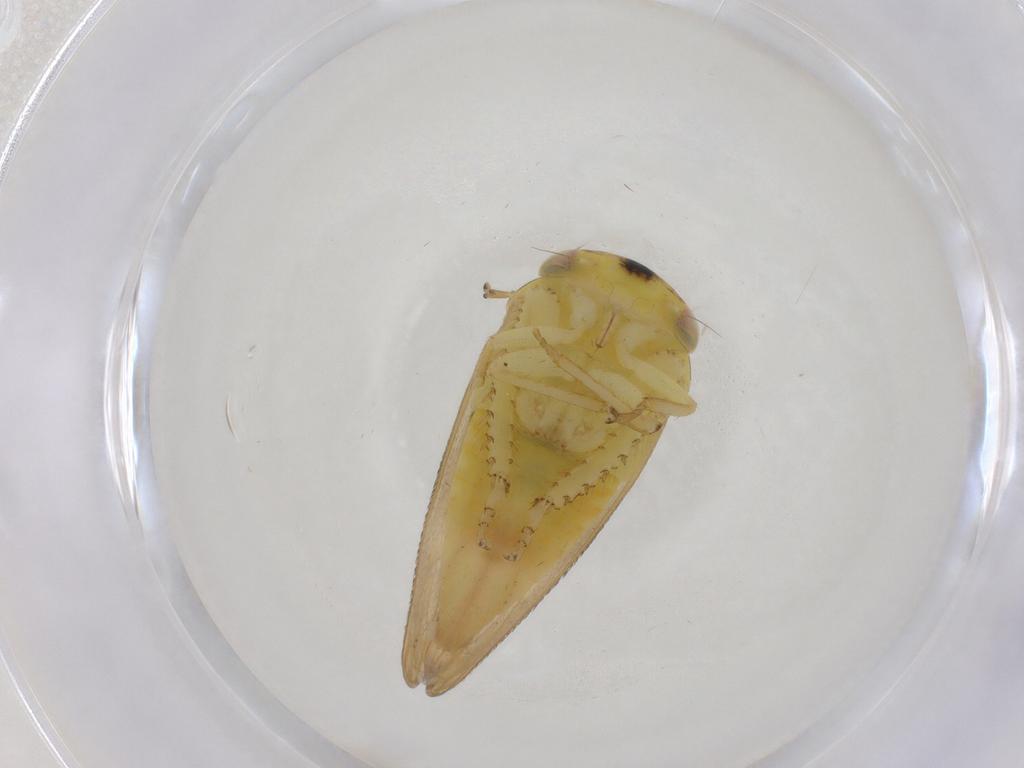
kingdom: Animalia
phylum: Arthropoda
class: Insecta
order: Hemiptera
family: Cicadellidae
